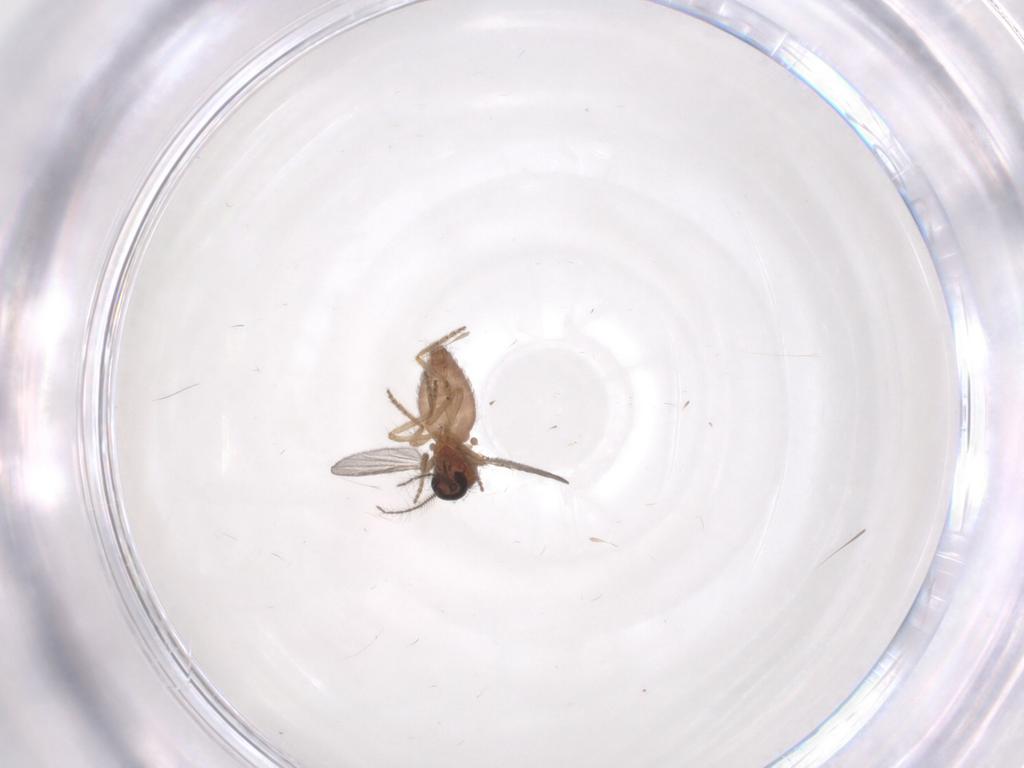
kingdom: Animalia
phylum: Arthropoda
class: Insecta
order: Diptera
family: Ceratopogonidae
